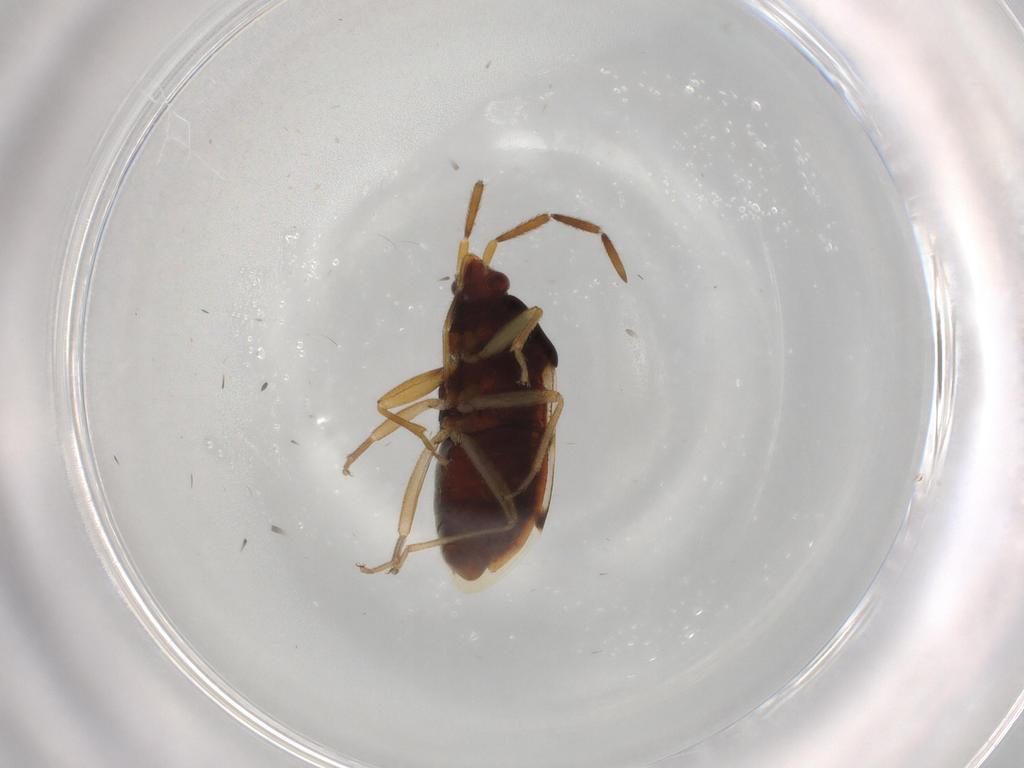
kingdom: Animalia
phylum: Arthropoda
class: Insecta
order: Hemiptera
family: Rhyparochromidae
